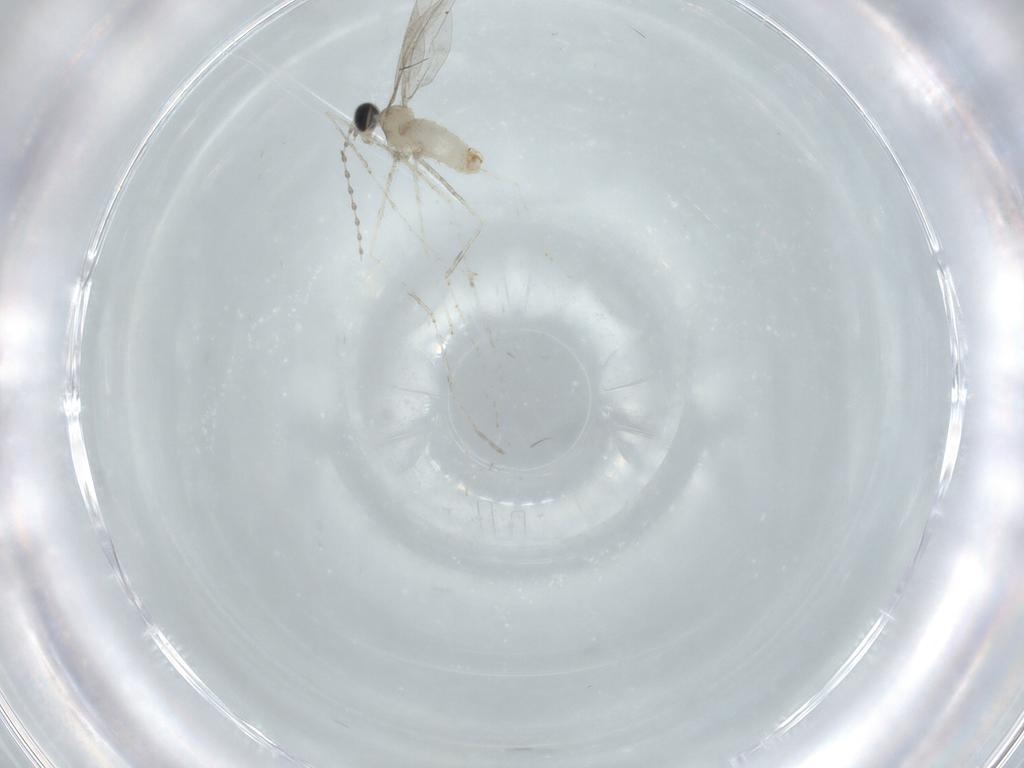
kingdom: Animalia
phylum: Arthropoda
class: Insecta
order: Diptera
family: Cecidomyiidae
